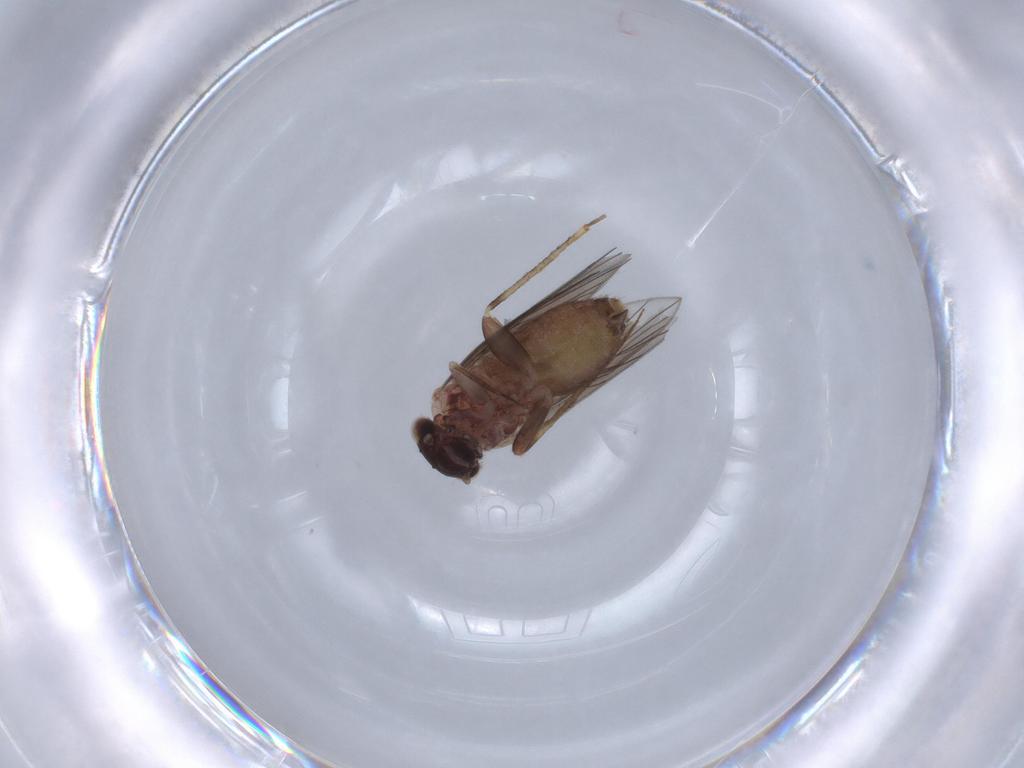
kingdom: Animalia
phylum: Arthropoda
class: Insecta
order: Psocodea
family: Lepidopsocidae
